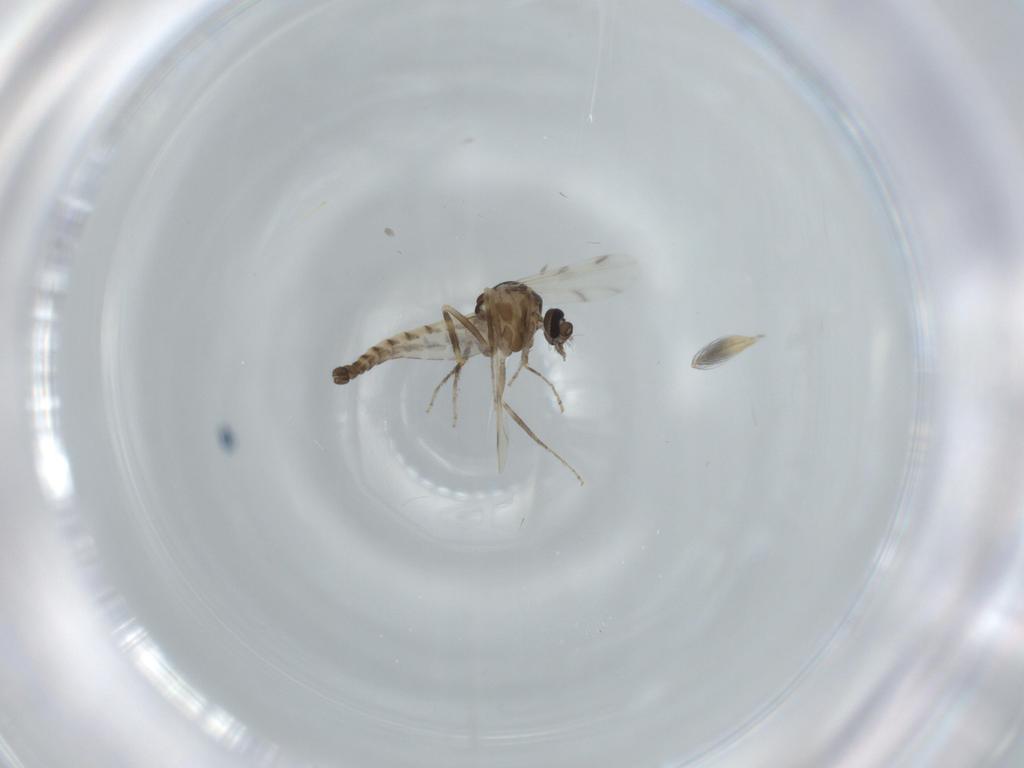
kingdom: Animalia
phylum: Arthropoda
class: Insecta
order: Diptera
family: Ceratopogonidae
